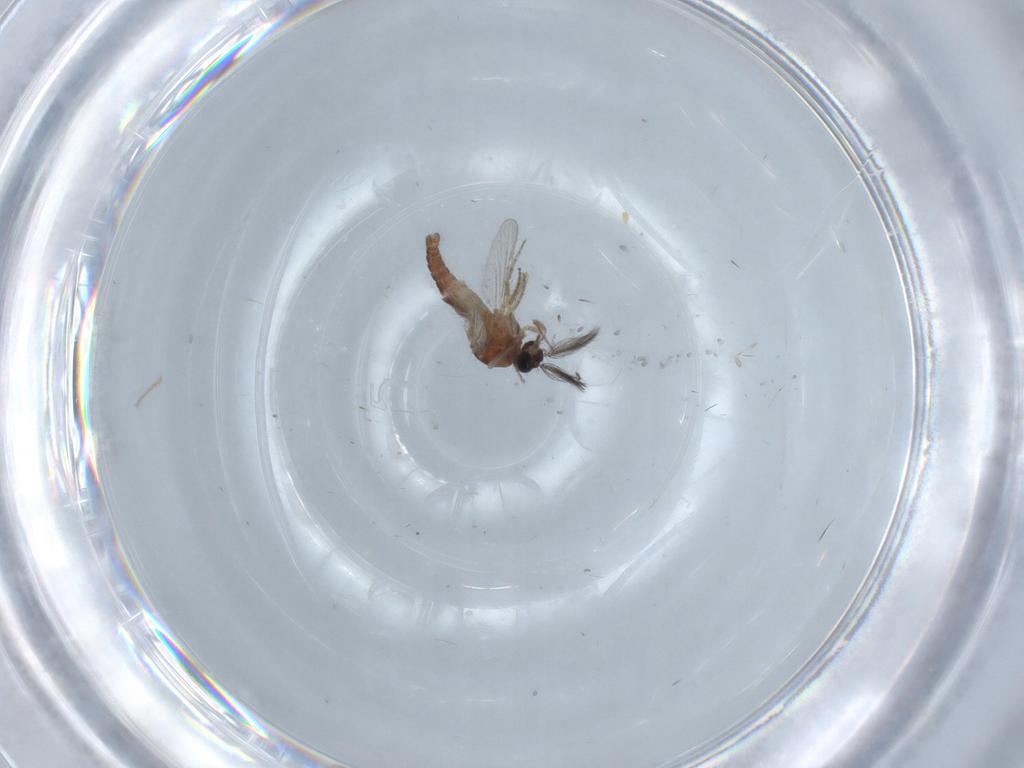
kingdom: Animalia
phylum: Arthropoda
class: Insecta
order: Diptera
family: Ceratopogonidae
